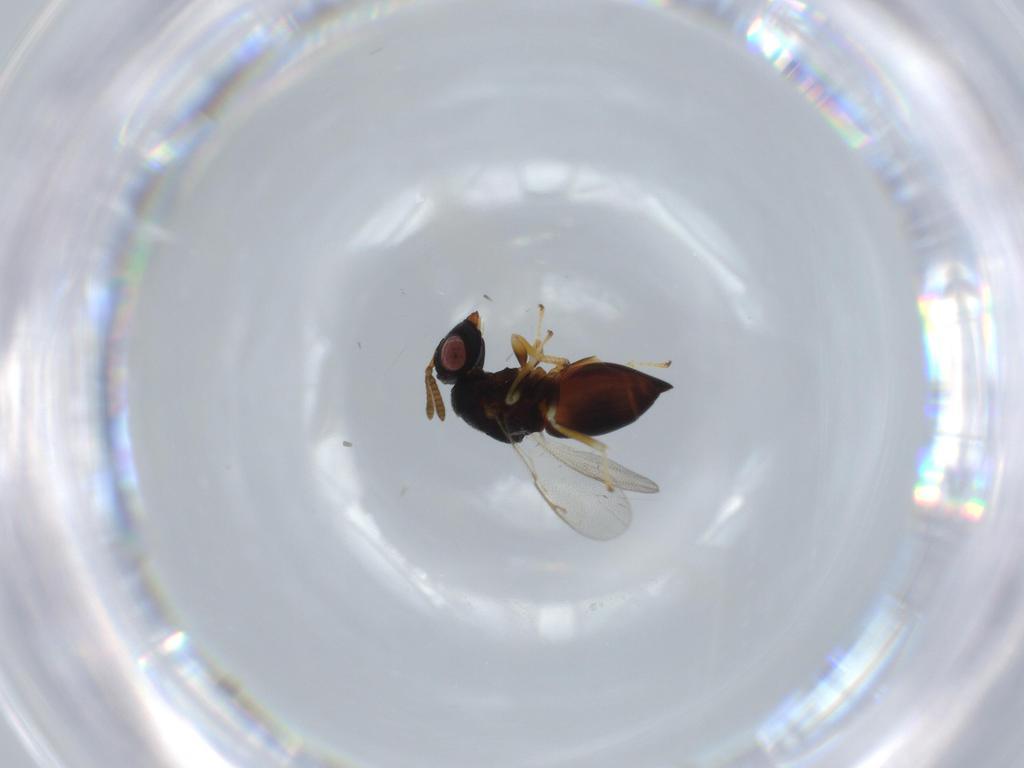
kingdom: Animalia
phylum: Arthropoda
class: Insecta
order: Hymenoptera
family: Pteromalidae
